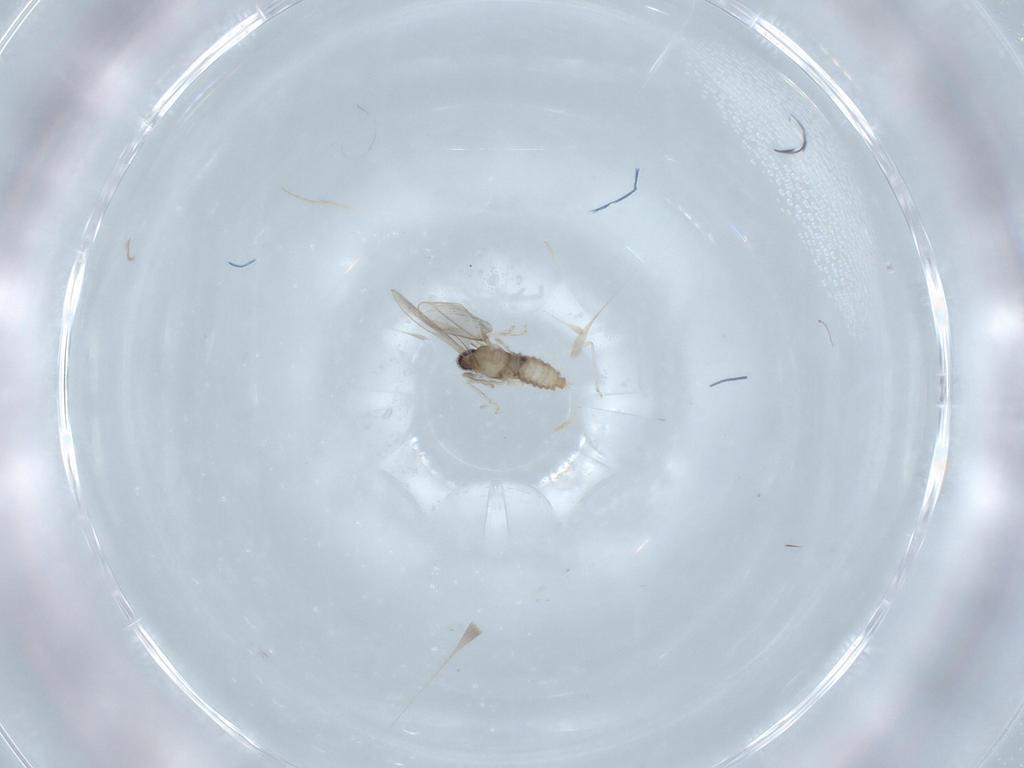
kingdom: Animalia
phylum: Arthropoda
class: Insecta
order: Diptera
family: Cecidomyiidae
